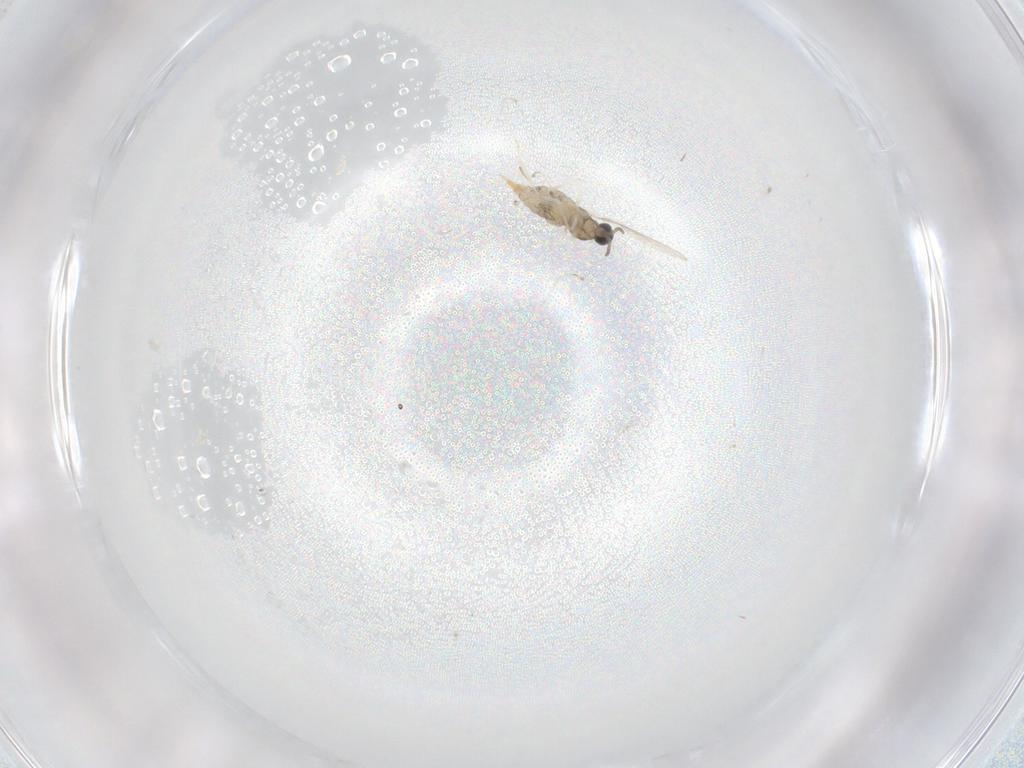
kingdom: Animalia
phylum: Arthropoda
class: Insecta
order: Diptera
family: Cecidomyiidae
